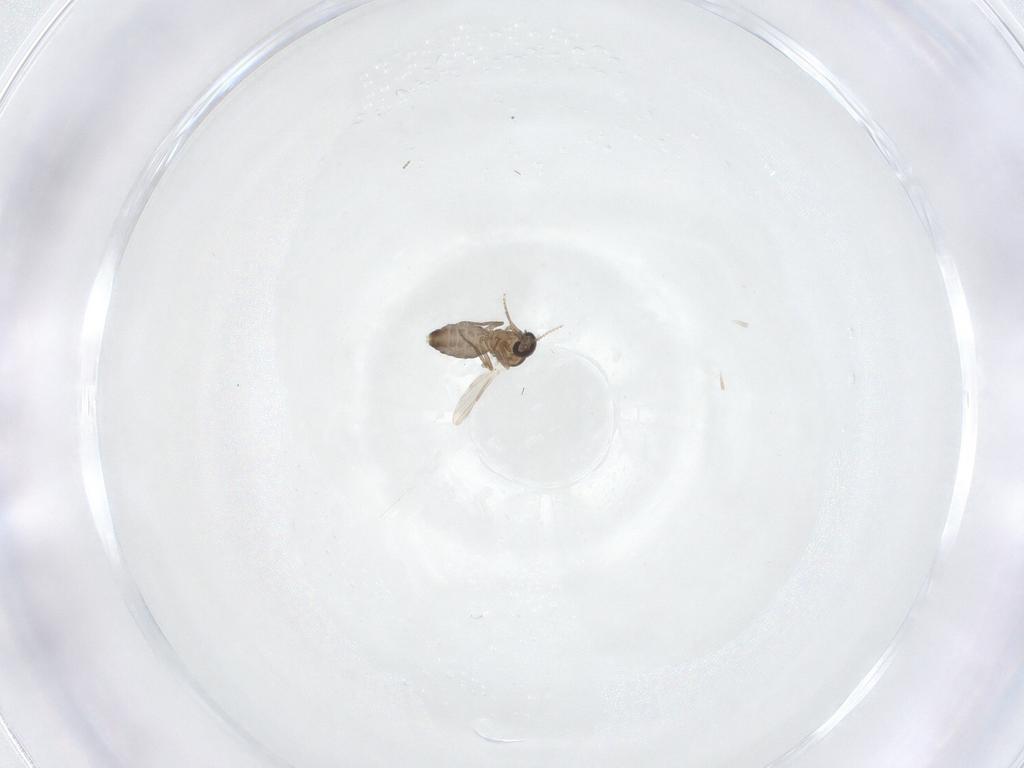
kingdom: Animalia
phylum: Arthropoda
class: Insecta
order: Diptera
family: Ceratopogonidae
